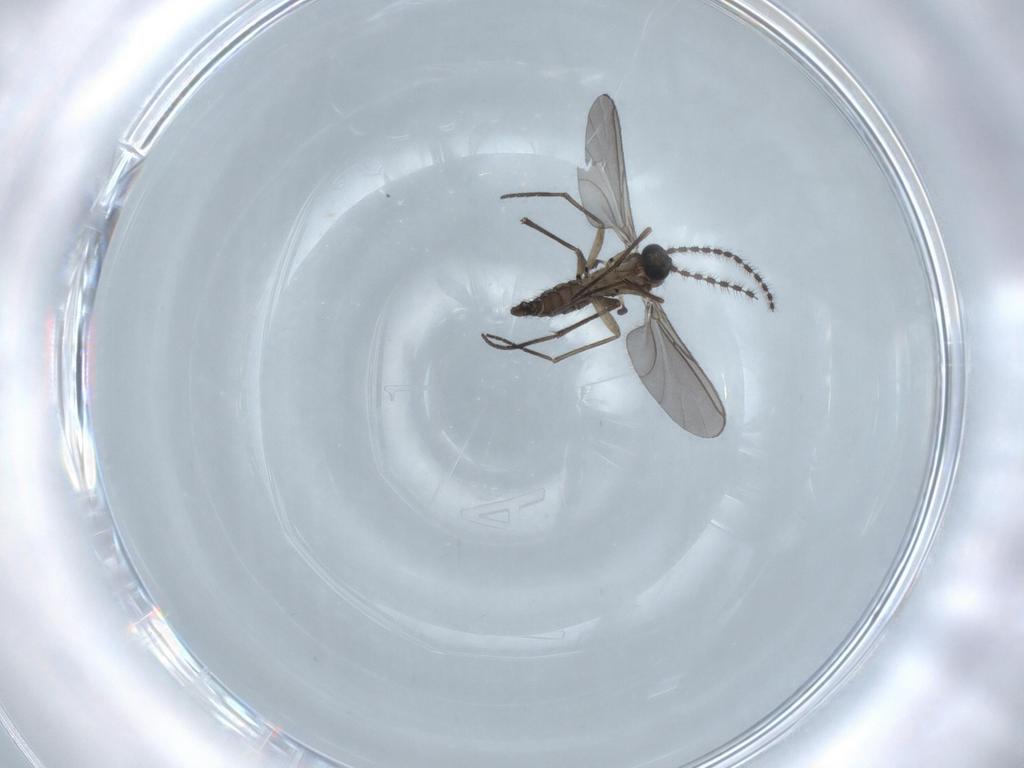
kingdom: Animalia
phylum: Arthropoda
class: Insecta
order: Diptera
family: Sciaridae
